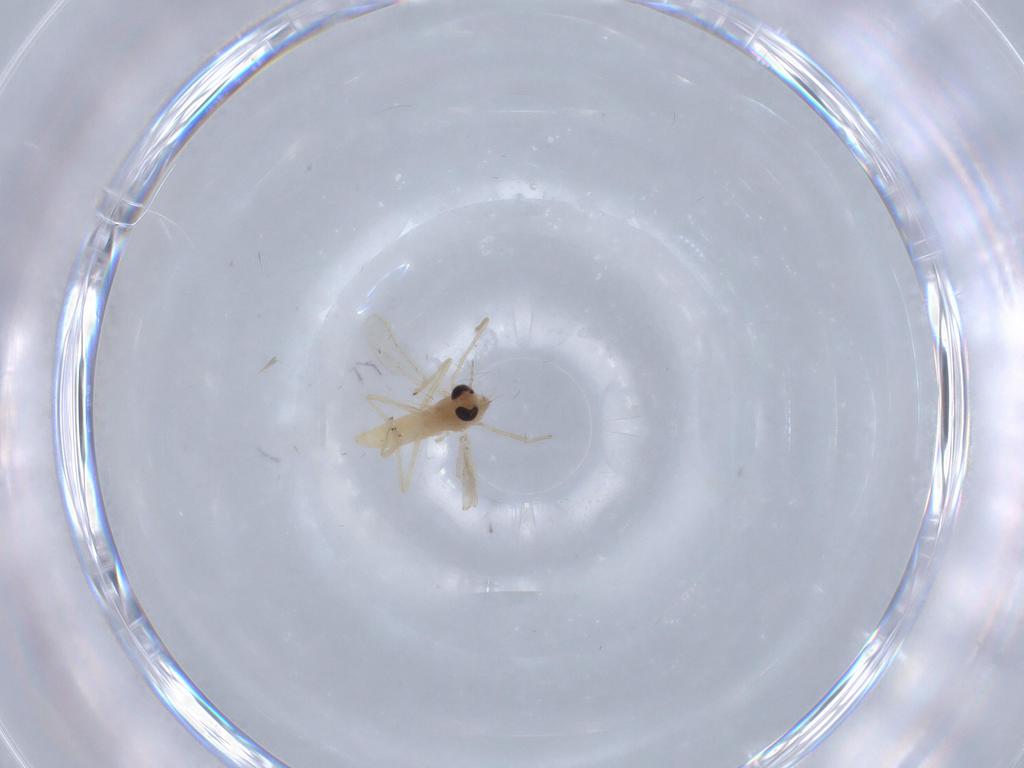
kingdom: Animalia
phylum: Arthropoda
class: Insecta
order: Diptera
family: Chironomidae
